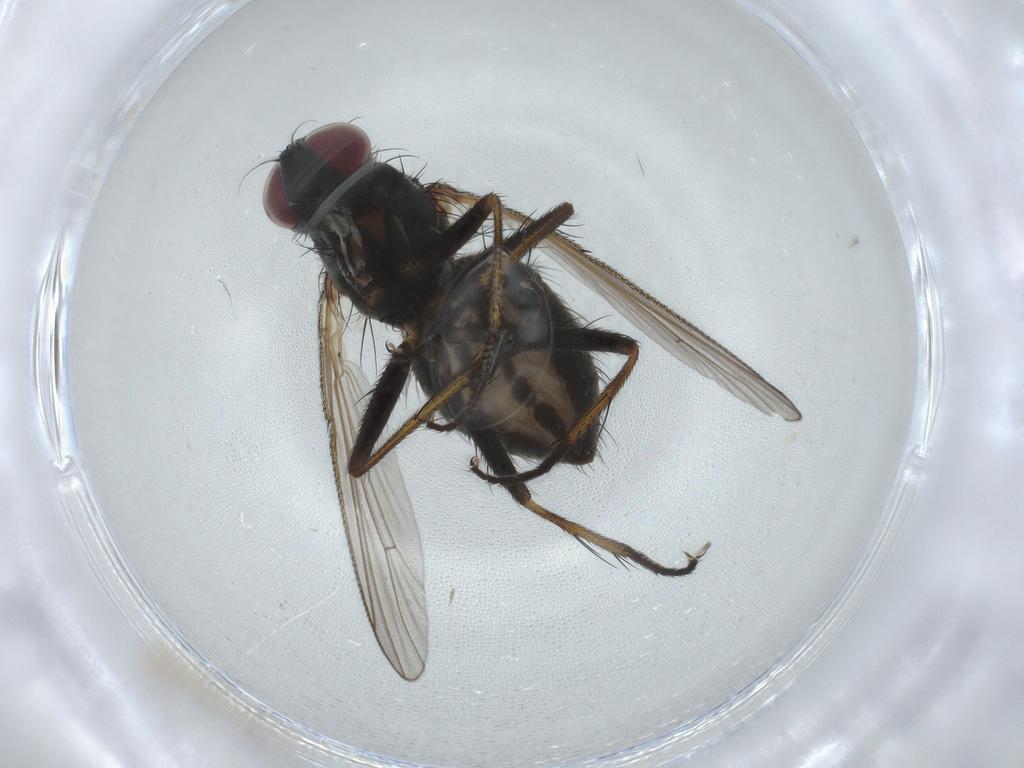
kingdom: Animalia
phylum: Arthropoda
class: Insecta
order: Diptera
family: Muscidae
